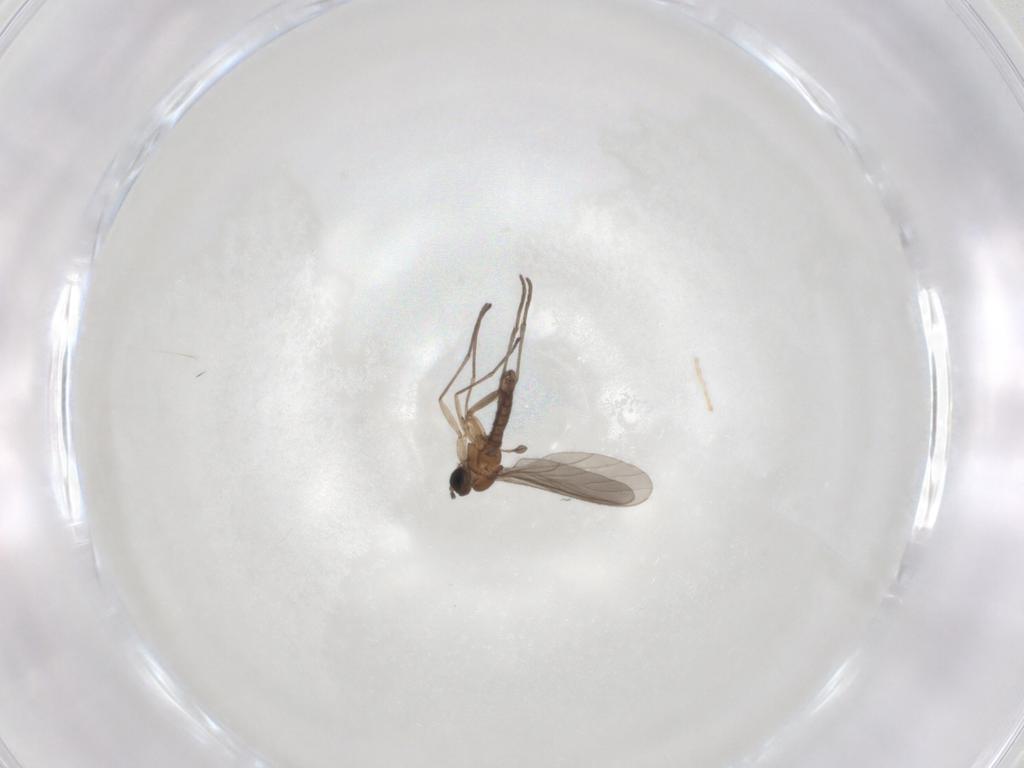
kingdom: Animalia
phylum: Arthropoda
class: Insecta
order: Diptera
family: Sciaridae
